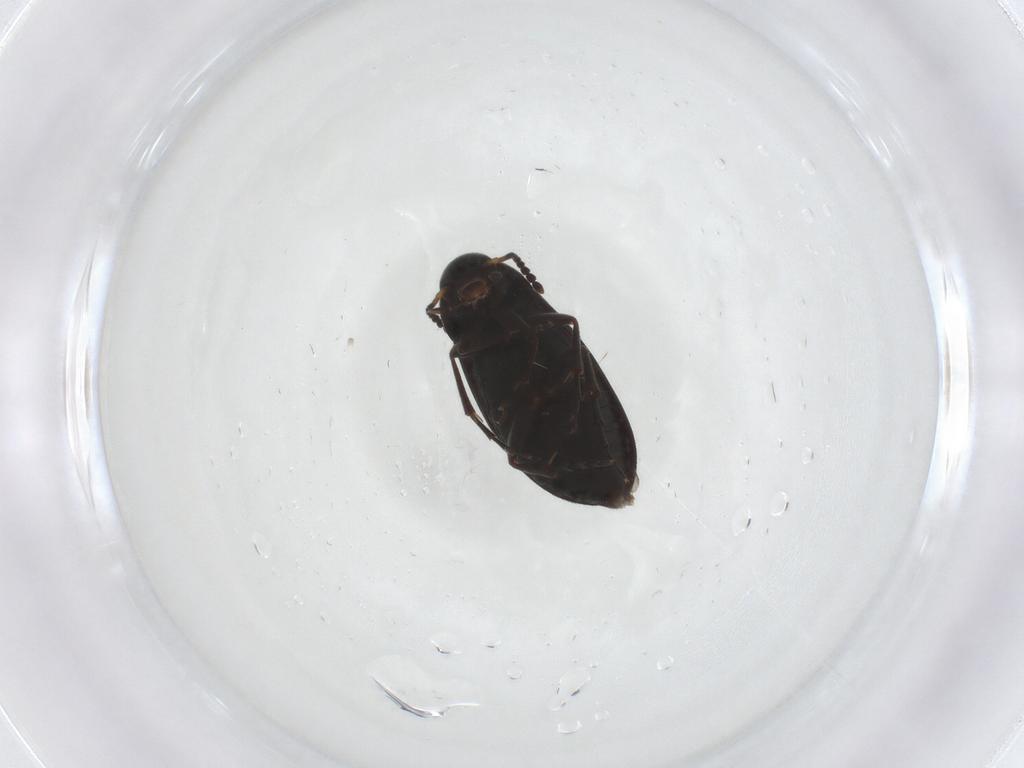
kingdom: Animalia
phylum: Arthropoda
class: Insecta
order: Coleoptera
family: Scraptiidae
